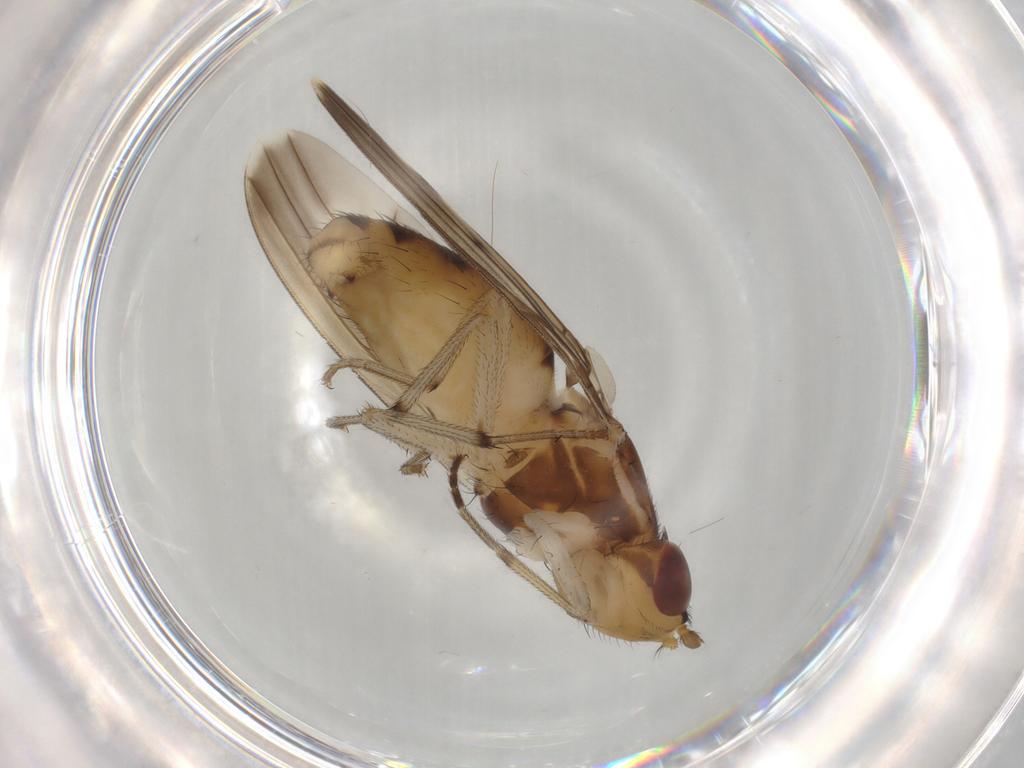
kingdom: Animalia
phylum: Arthropoda
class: Insecta
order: Diptera
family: Lauxaniidae
